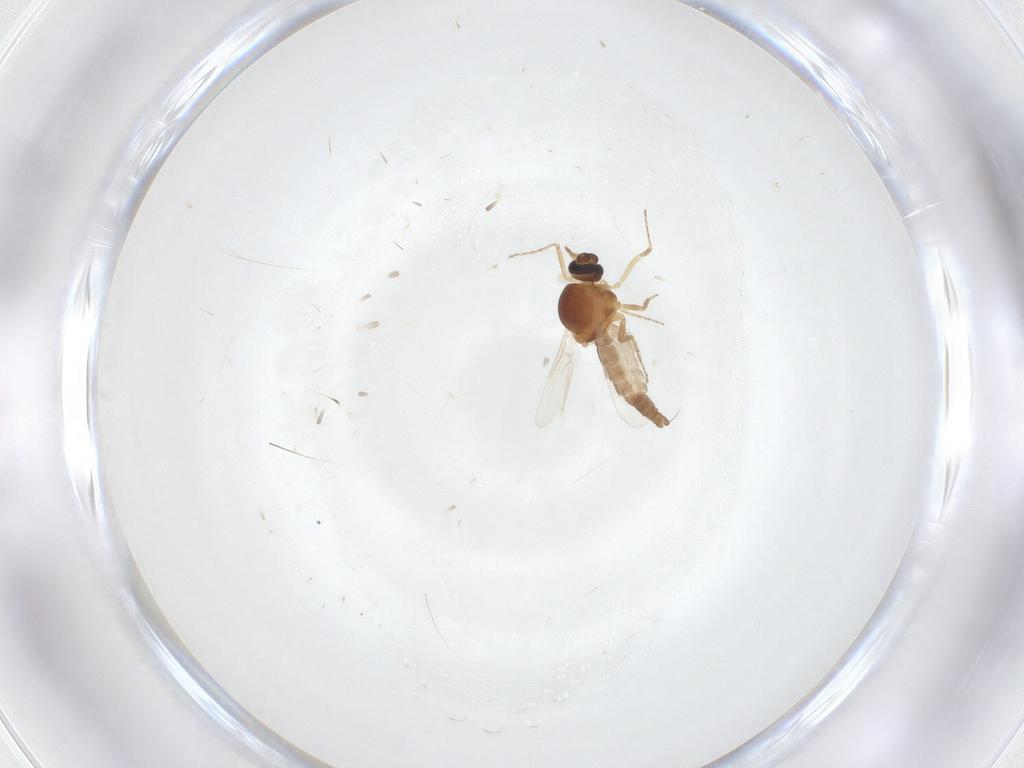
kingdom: Animalia
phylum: Arthropoda
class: Insecta
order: Diptera
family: Ceratopogonidae
